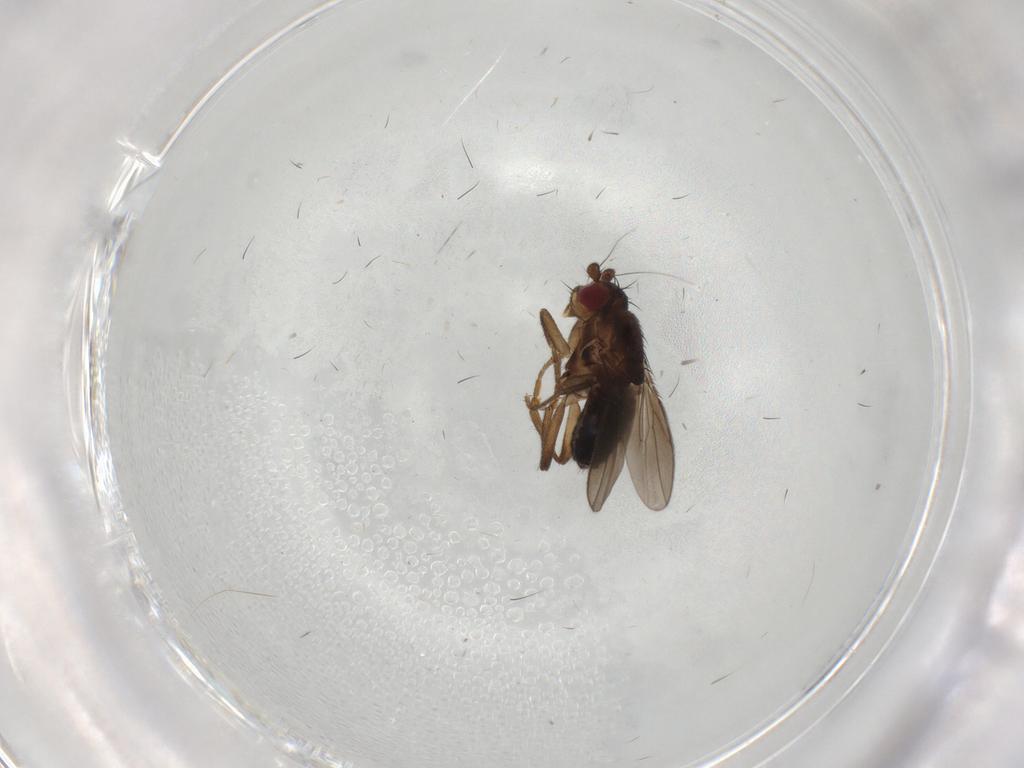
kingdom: Animalia
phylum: Arthropoda
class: Insecta
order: Diptera
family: Sphaeroceridae
